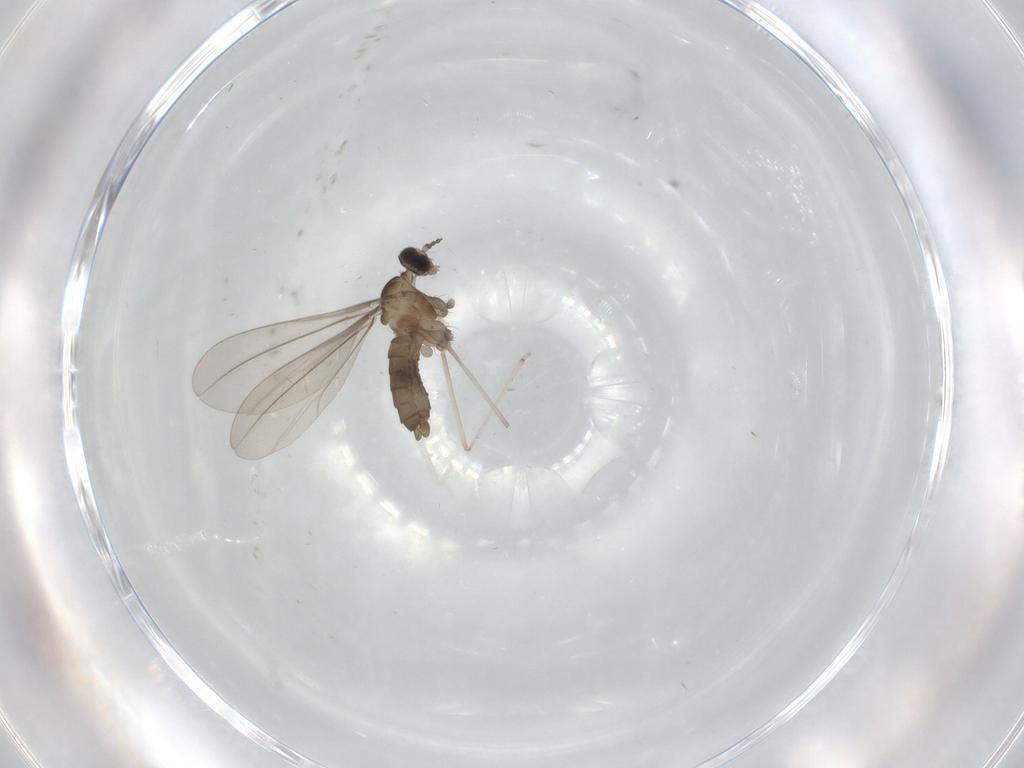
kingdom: Animalia
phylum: Arthropoda
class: Insecta
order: Diptera
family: Cecidomyiidae
